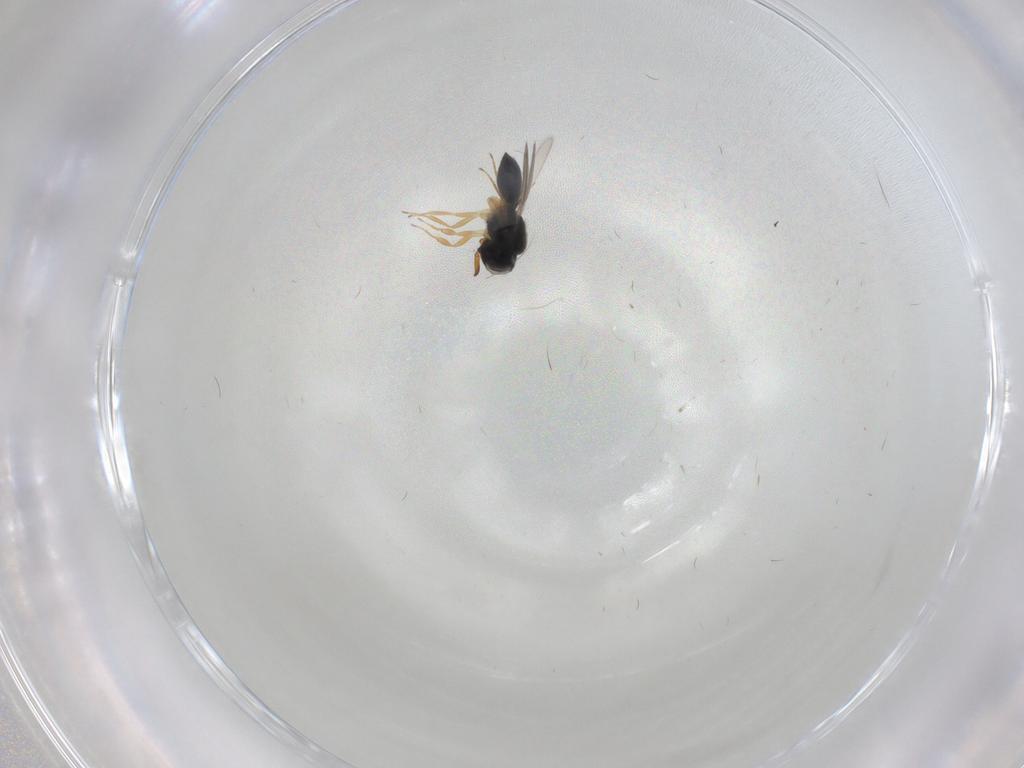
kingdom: Animalia
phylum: Arthropoda
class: Insecta
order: Hymenoptera
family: Scelionidae
